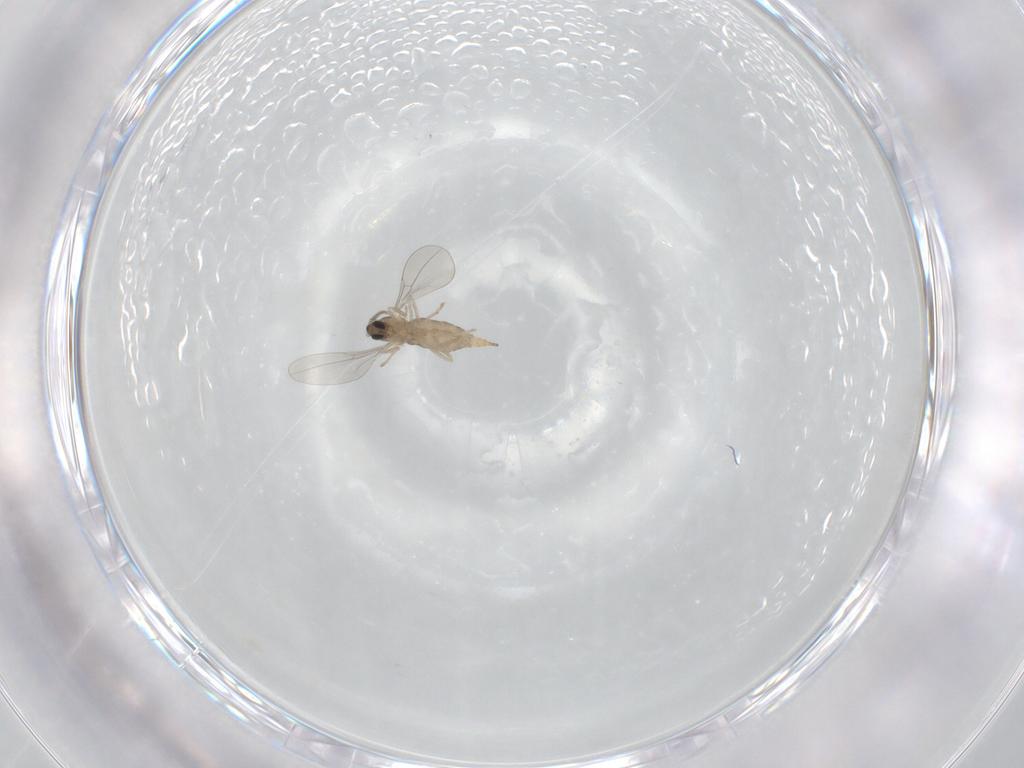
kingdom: Animalia
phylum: Arthropoda
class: Insecta
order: Diptera
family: Cecidomyiidae
